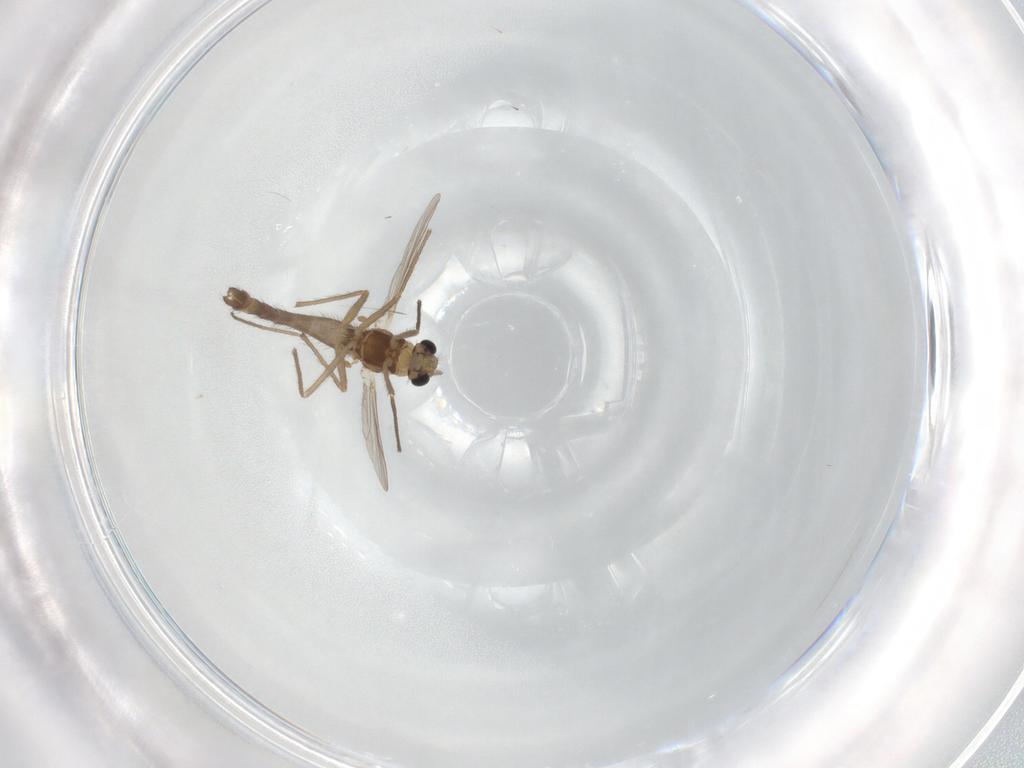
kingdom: Animalia
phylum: Arthropoda
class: Insecta
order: Diptera
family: Chironomidae
